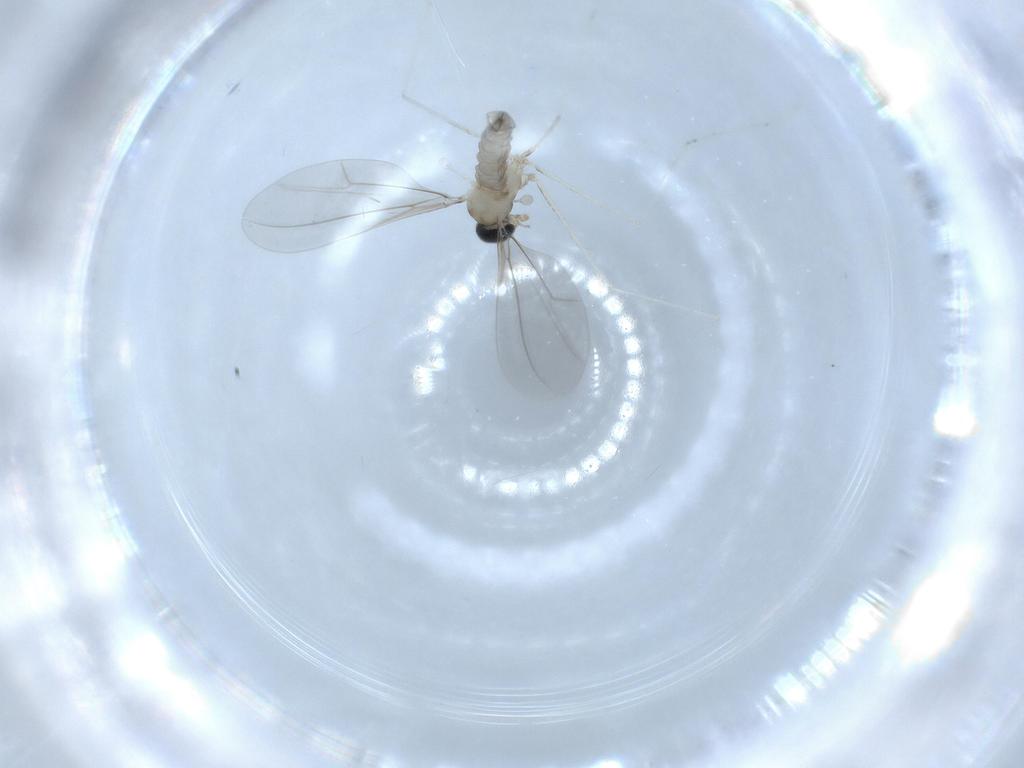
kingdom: Animalia
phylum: Arthropoda
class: Insecta
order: Diptera
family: Cecidomyiidae
